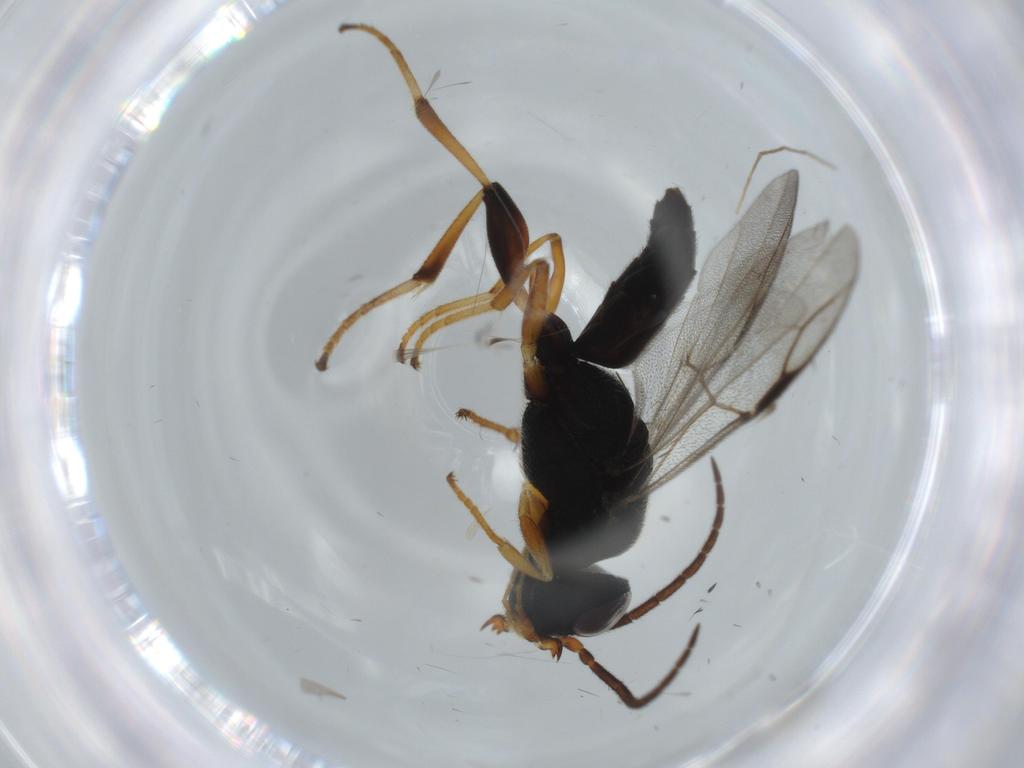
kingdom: Animalia
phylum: Arthropoda
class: Insecta
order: Hymenoptera
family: Dryinidae
